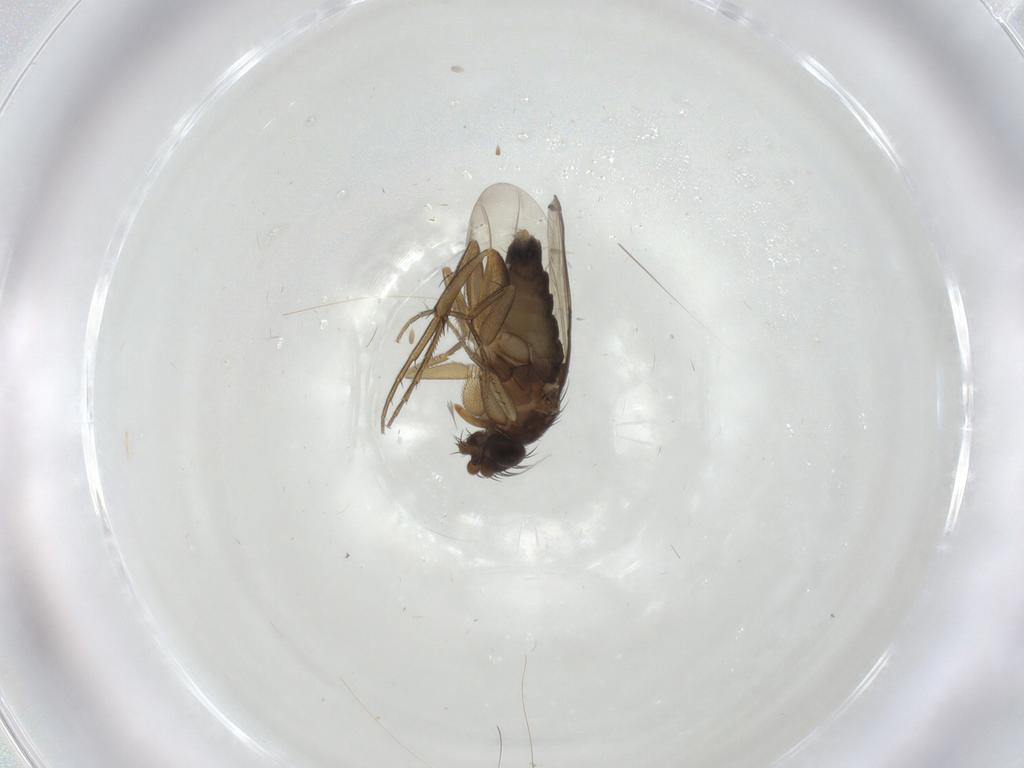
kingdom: Animalia
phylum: Arthropoda
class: Insecta
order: Diptera
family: Phoridae
